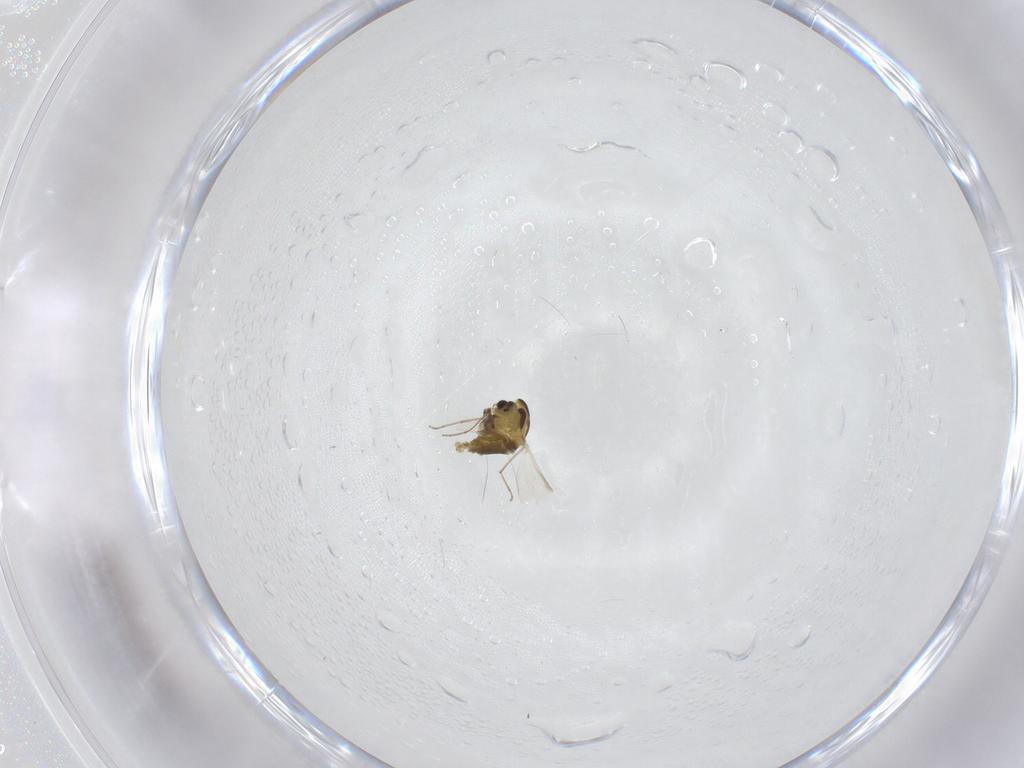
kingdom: Animalia
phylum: Arthropoda
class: Insecta
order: Diptera
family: Chironomidae
